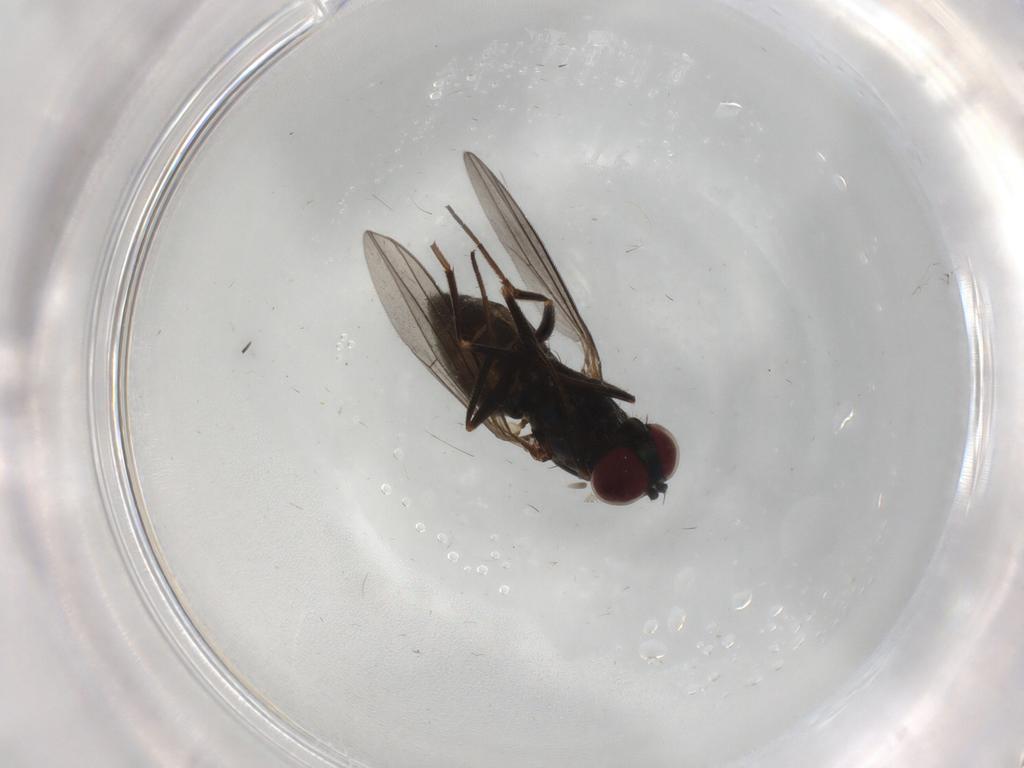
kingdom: Animalia
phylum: Arthropoda
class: Insecta
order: Diptera
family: Dolichopodidae
